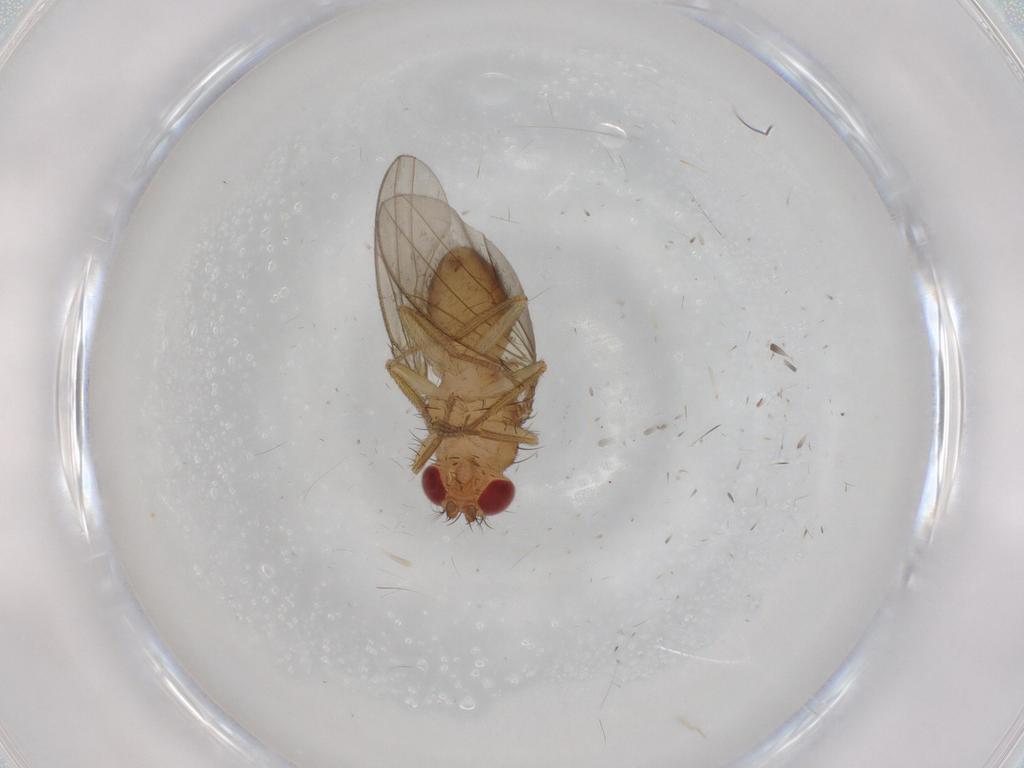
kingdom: Animalia
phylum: Arthropoda
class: Insecta
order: Diptera
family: Drosophilidae
